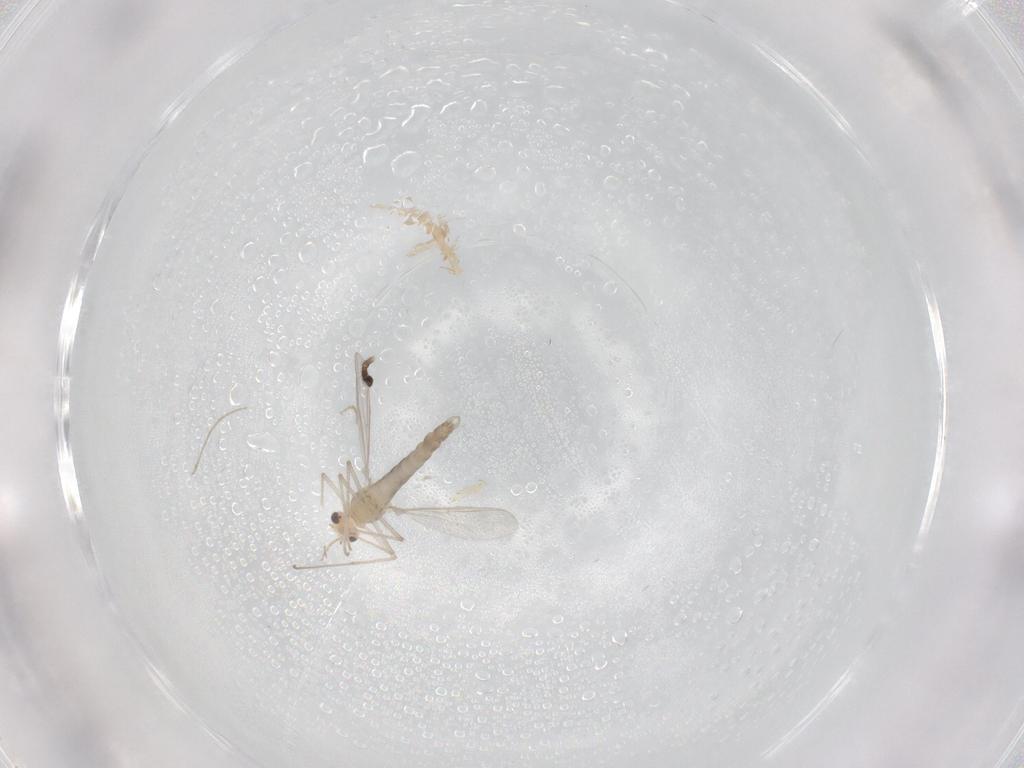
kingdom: Animalia
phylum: Arthropoda
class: Insecta
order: Diptera
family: Chironomidae
